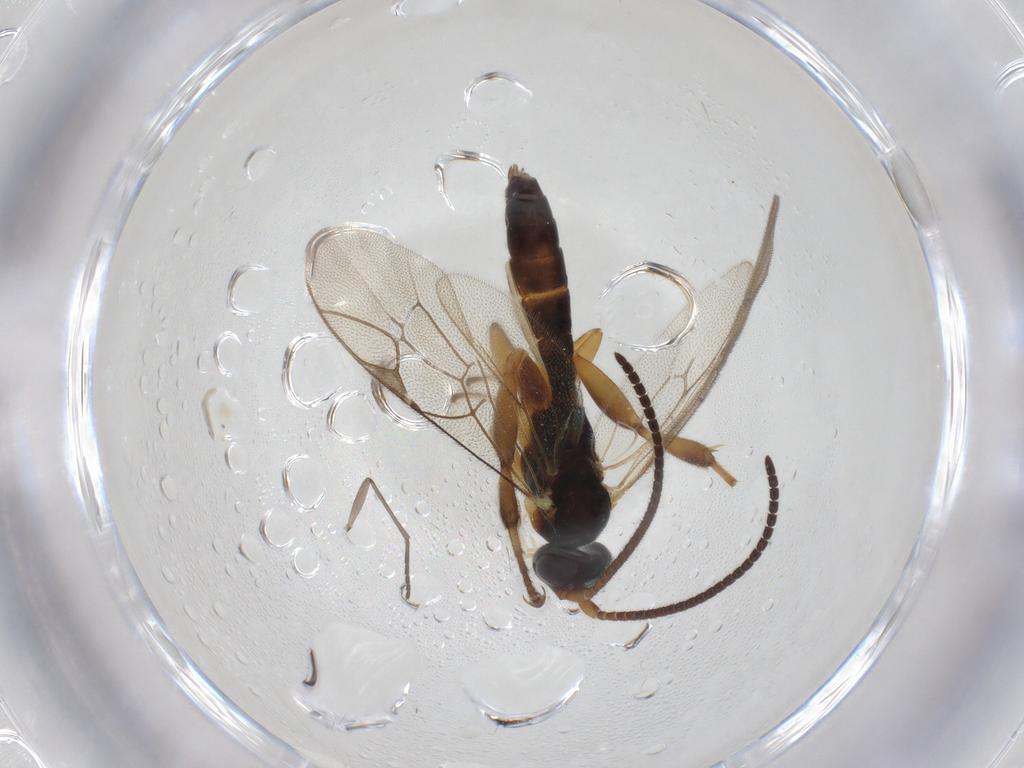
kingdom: Animalia
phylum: Arthropoda
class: Insecta
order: Hymenoptera
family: Ichneumonidae
